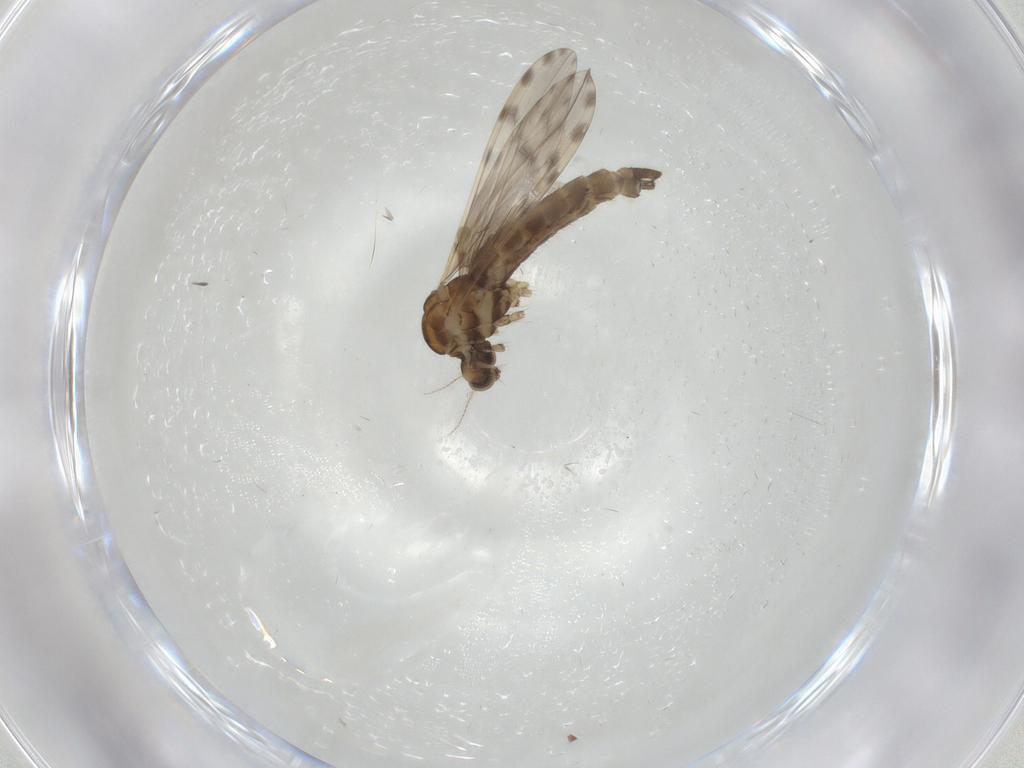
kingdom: Animalia
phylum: Arthropoda
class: Insecta
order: Diptera
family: Limoniidae
